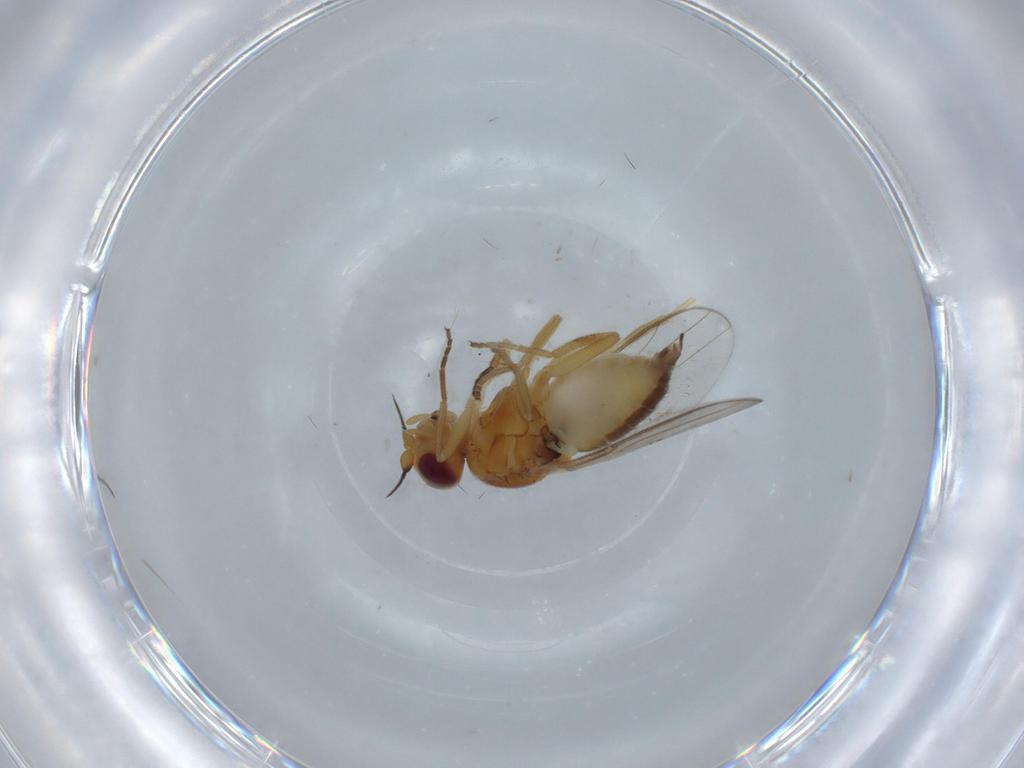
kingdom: Animalia
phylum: Arthropoda
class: Insecta
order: Diptera
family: Chloropidae
